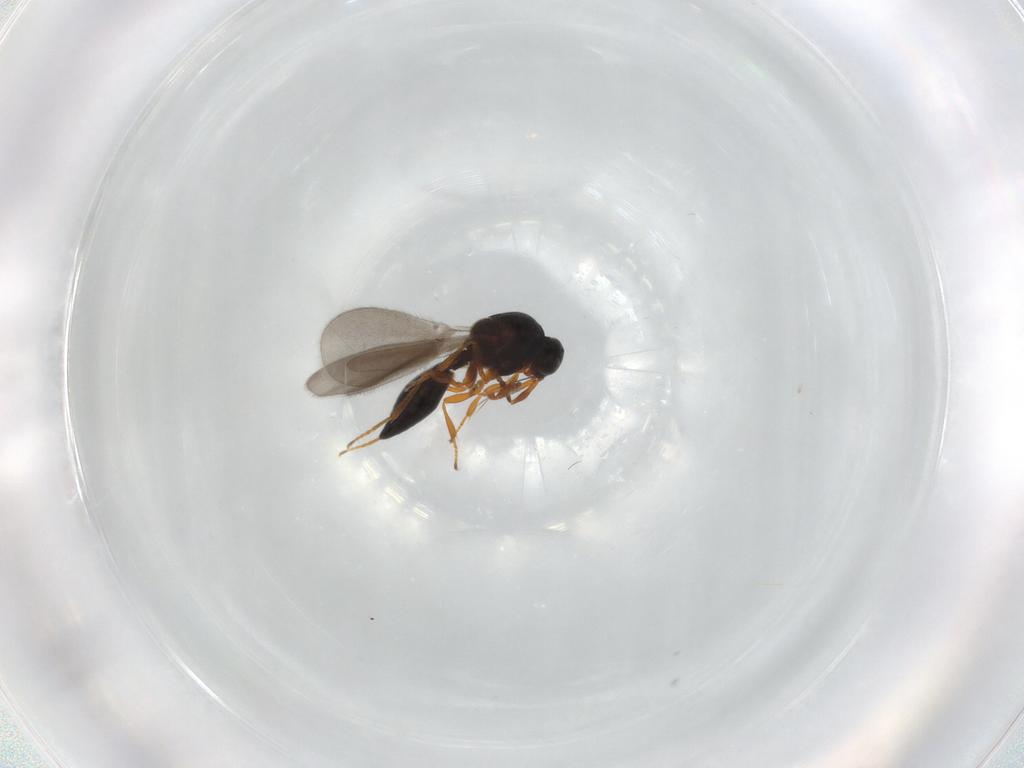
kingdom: Animalia
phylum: Arthropoda
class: Insecta
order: Hymenoptera
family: Platygastridae
